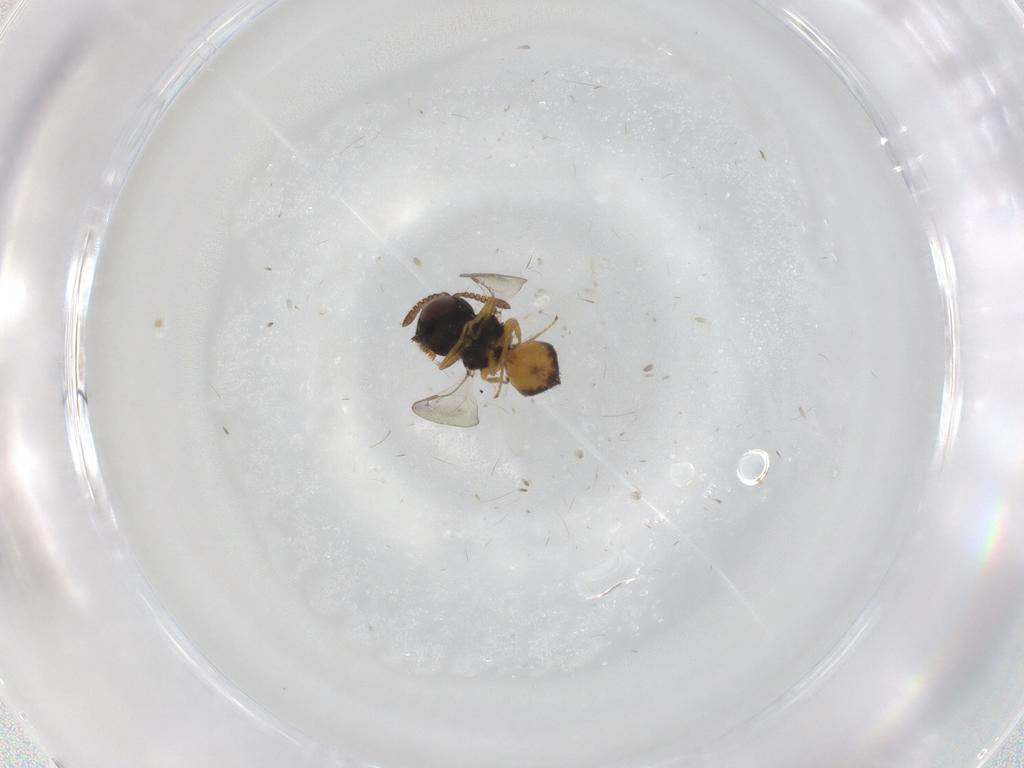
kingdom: Animalia
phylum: Arthropoda
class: Insecta
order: Hymenoptera
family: Pteromalidae
